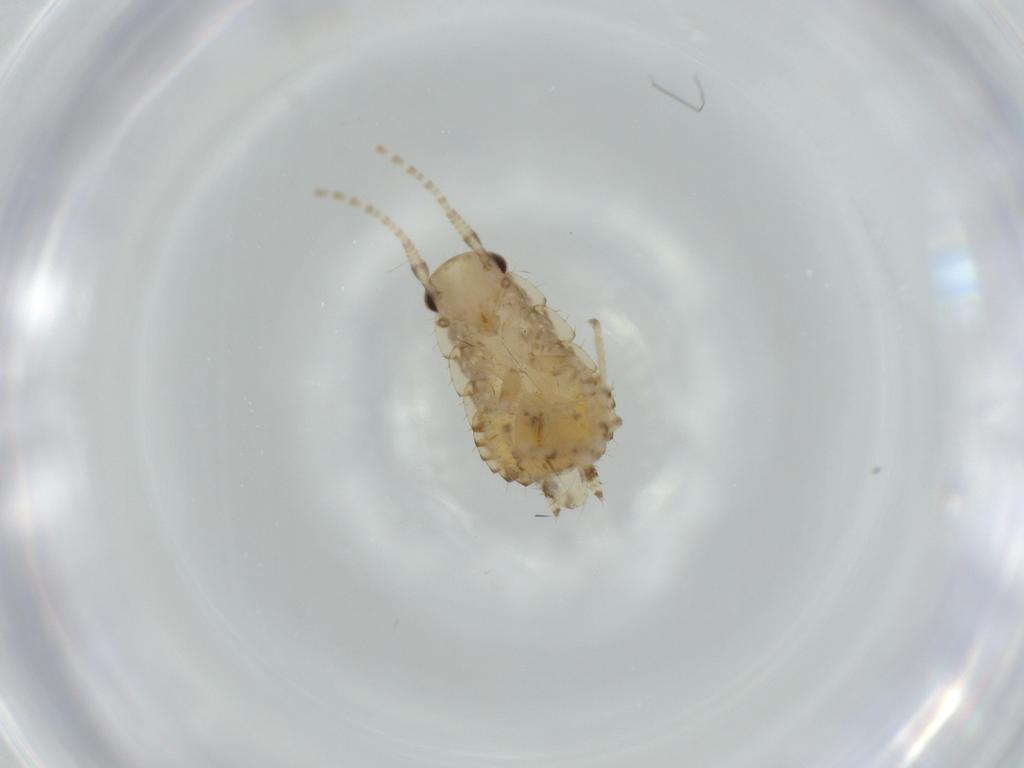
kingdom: Animalia
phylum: Arthropoda
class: Insecta
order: Blattodea
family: Ectobiidae
